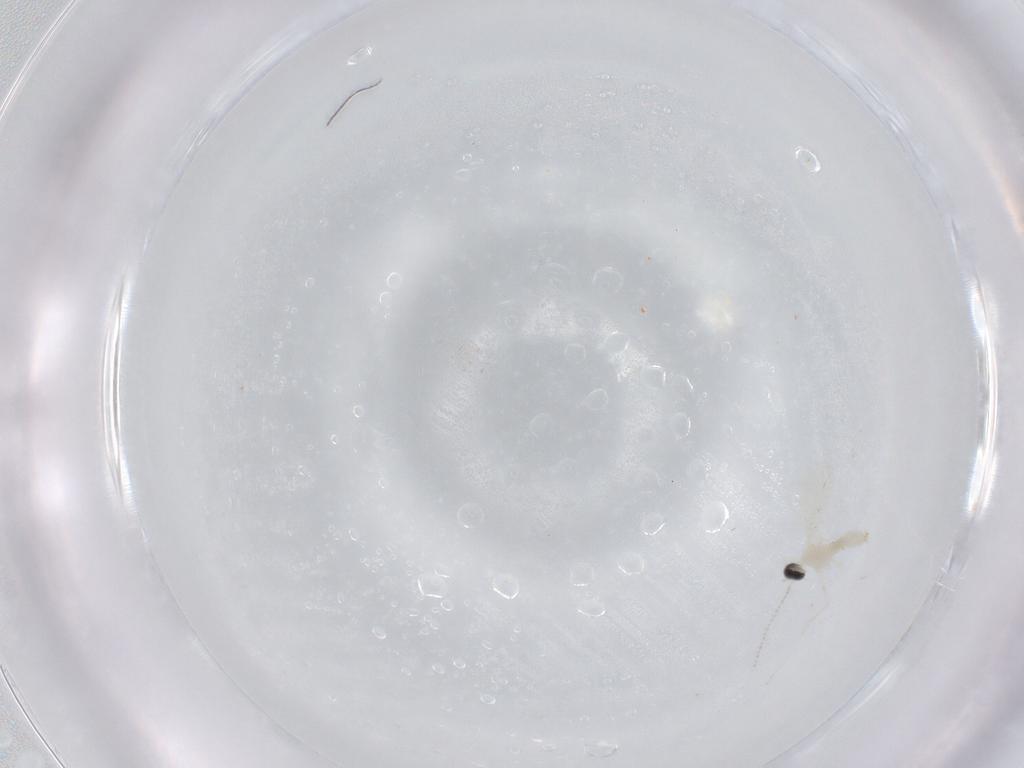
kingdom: Animalia
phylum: Arthropoda
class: Insecta
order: Diptera
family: Cecidomyiidae
